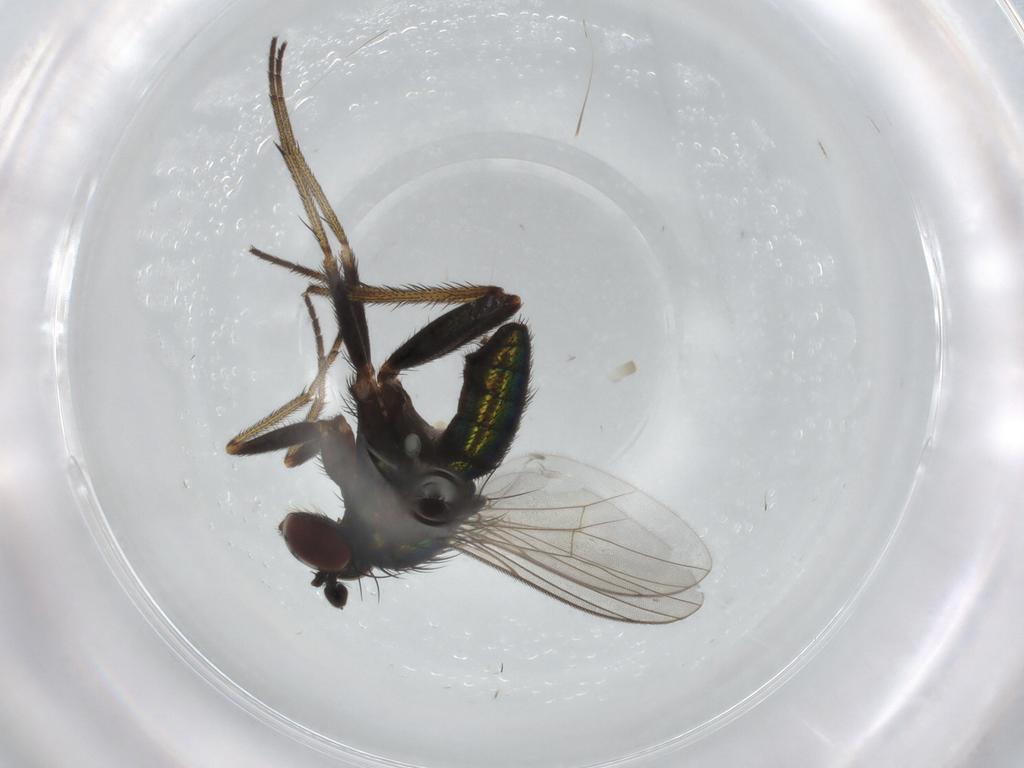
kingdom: Animalia
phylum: Arthropoda
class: Insecta
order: Diptera
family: Dolichopodidae
